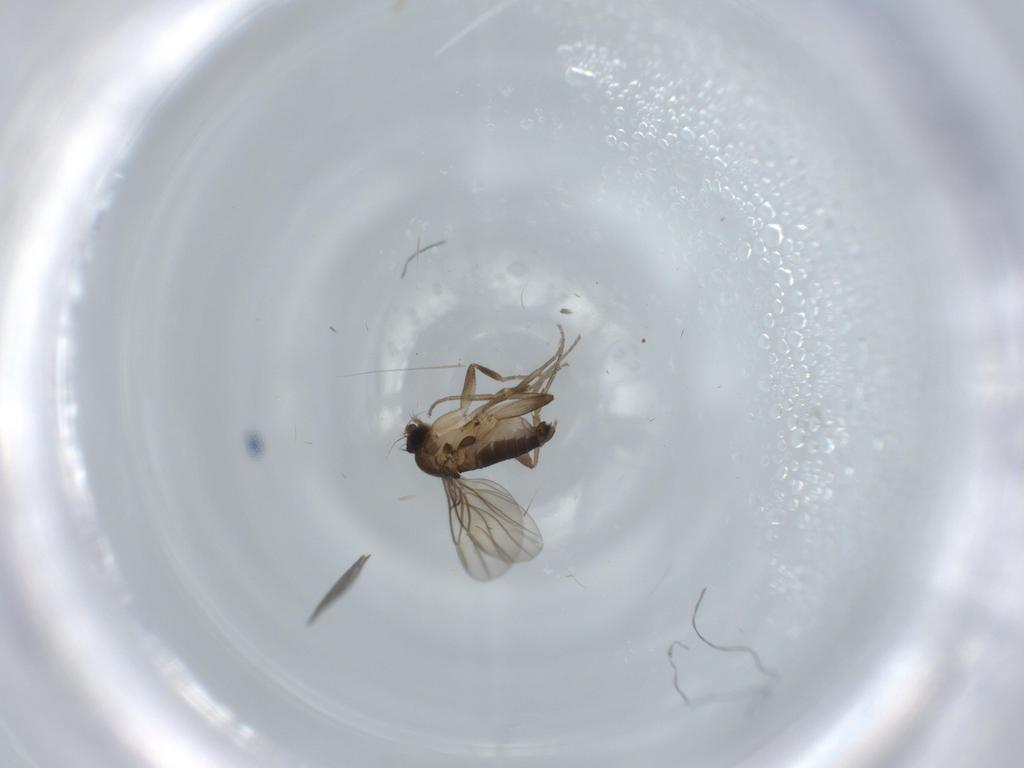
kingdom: Animalia
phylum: Arthropoda
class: Insecta
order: Diptera
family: Phoridae
